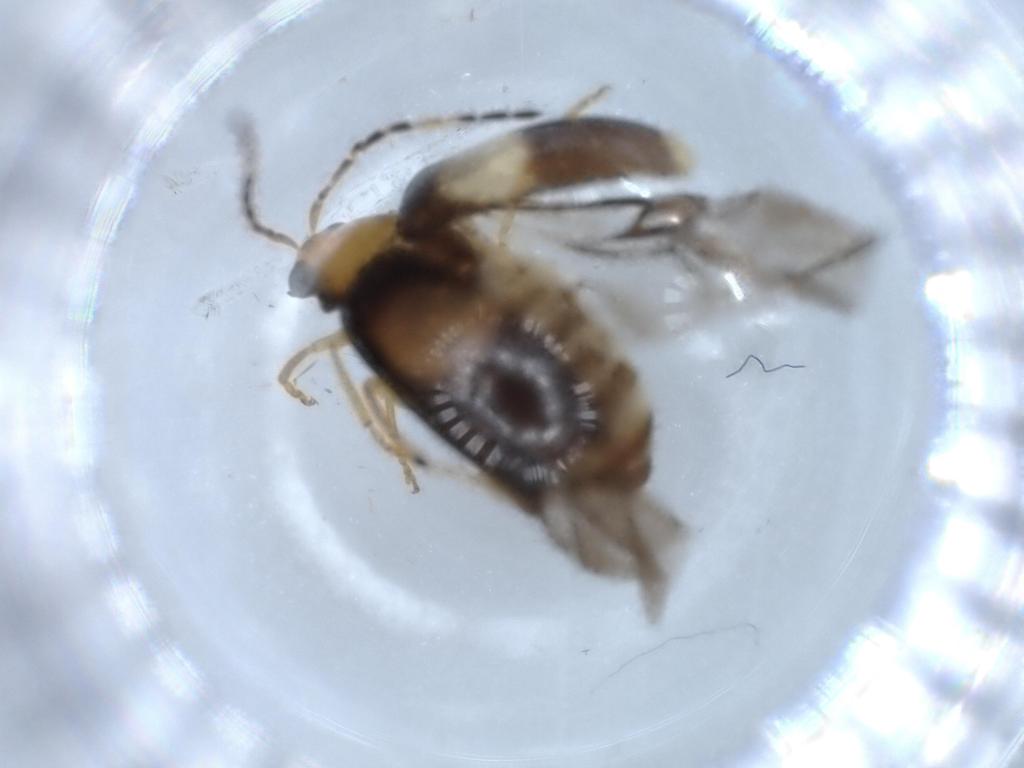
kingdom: Animalia
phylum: Arthropoda
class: Insecta
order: Coleoptera
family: Chrysomelidae
